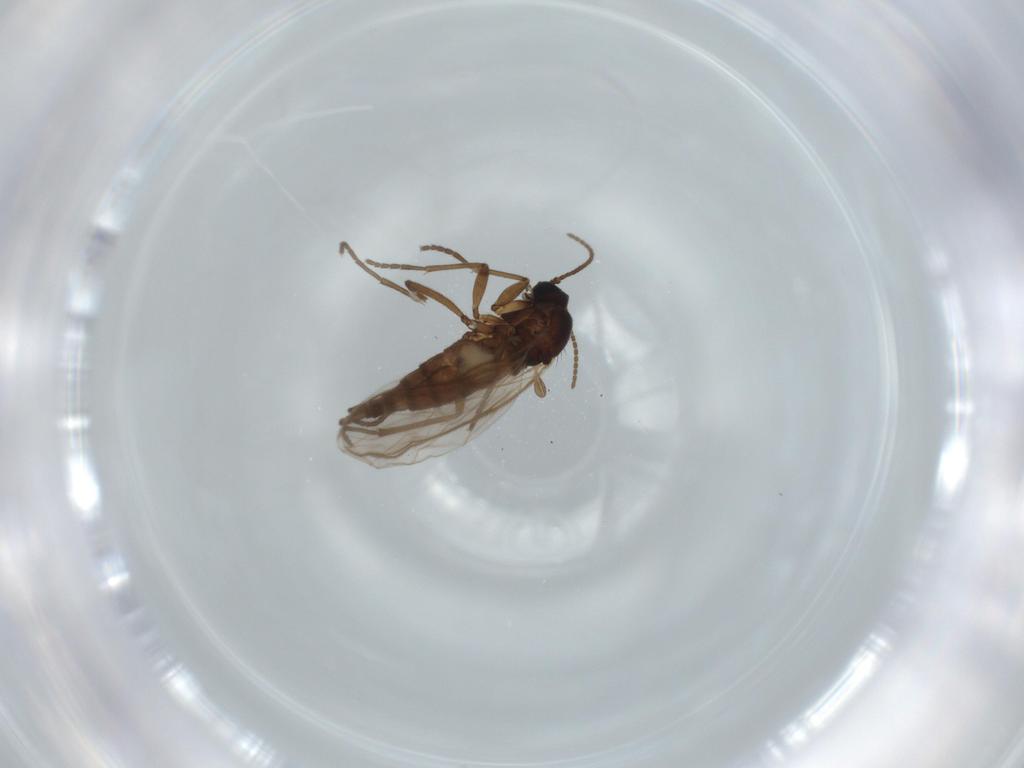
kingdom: Animalia
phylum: Arthropoda
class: Insecta
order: Diptera
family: Sciaridae
